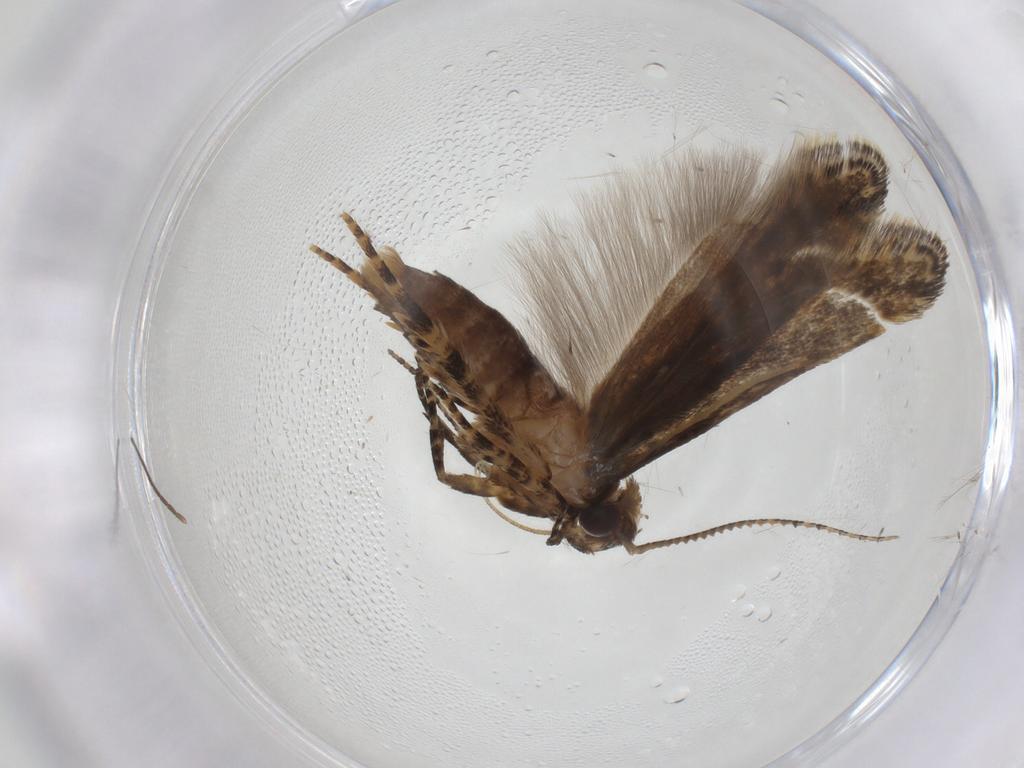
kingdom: Animalia
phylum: Arthropoda
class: Insecta
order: Lepidoptera
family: Gelechiidae
